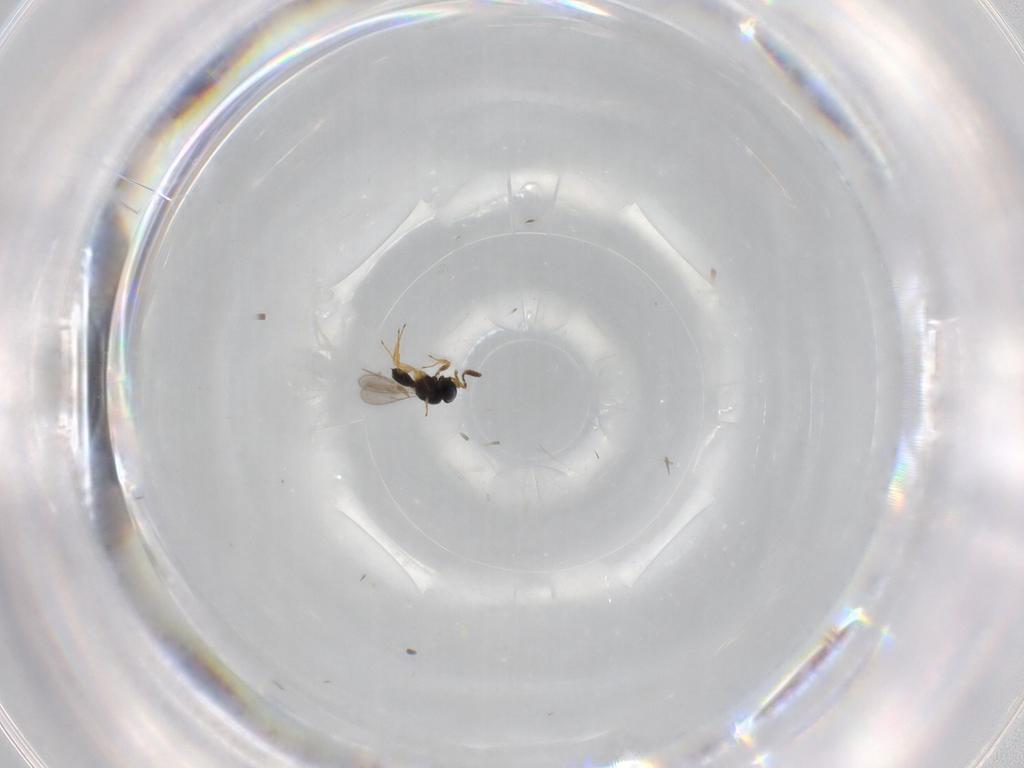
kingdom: Animalia
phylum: Arthropoda
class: Insecta
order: Hymenoptera
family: Scelionidae
